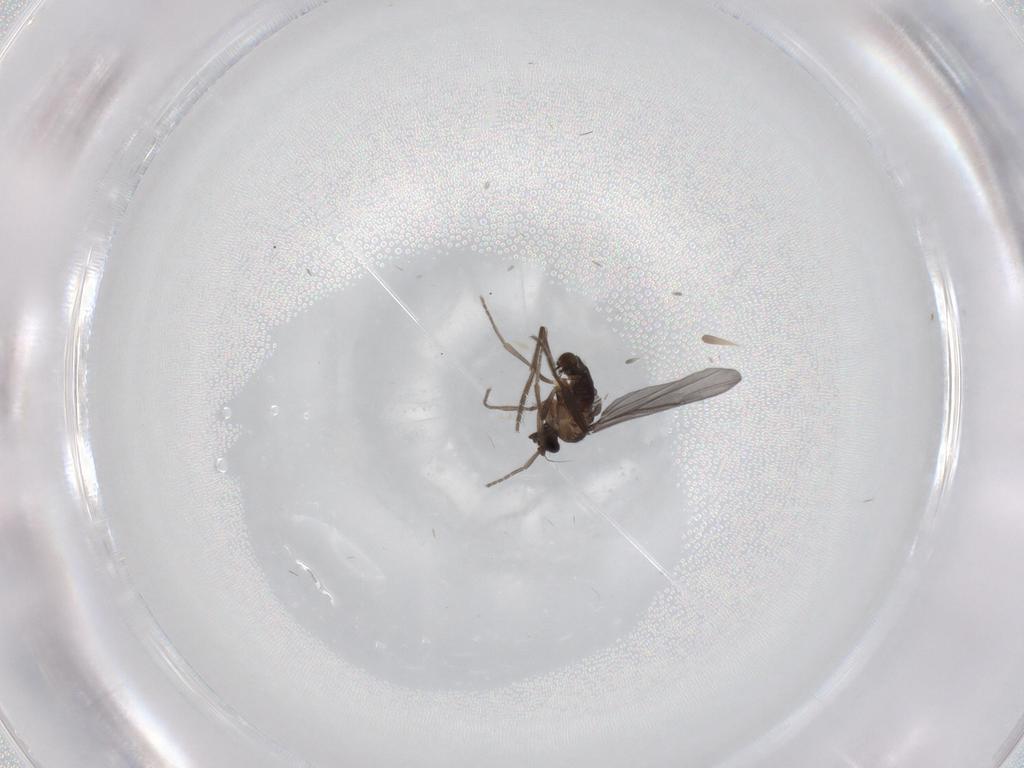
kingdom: Animalia
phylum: Arthropoda
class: Insecta
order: Diptera
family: Phoridae
